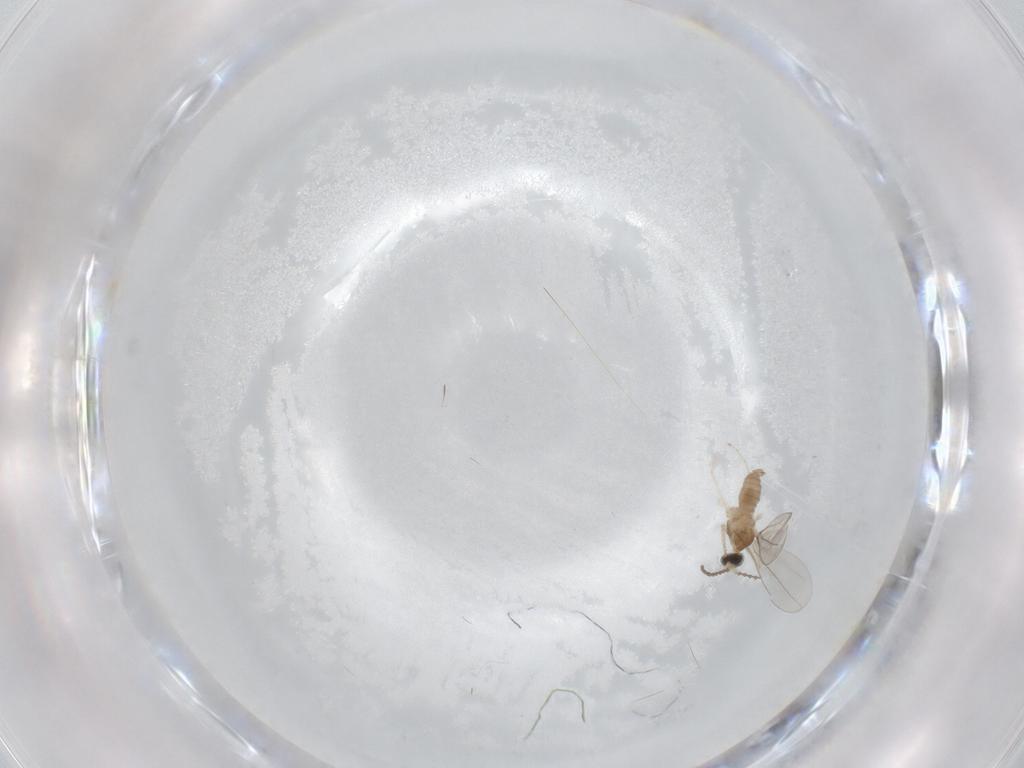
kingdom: Animalia
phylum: Arthropoda
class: Insecta
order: Diptera
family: Cecidomyiidae
